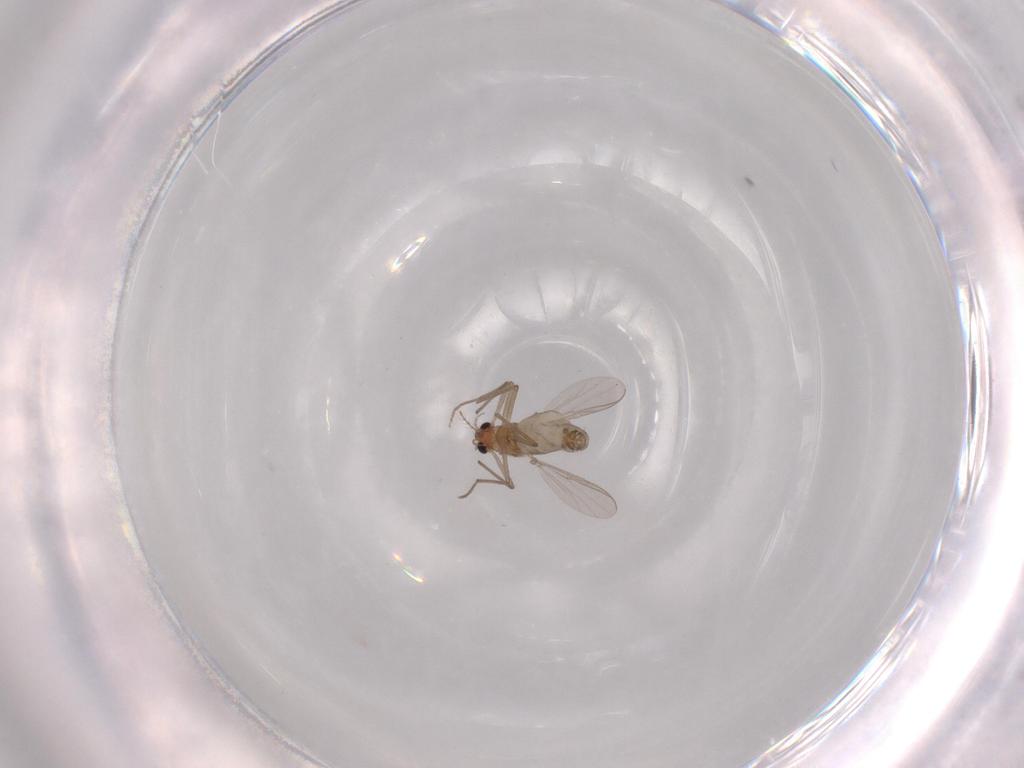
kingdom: Animalia
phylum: Arthropoda
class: Insecta
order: Diptera
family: Chironomidae
